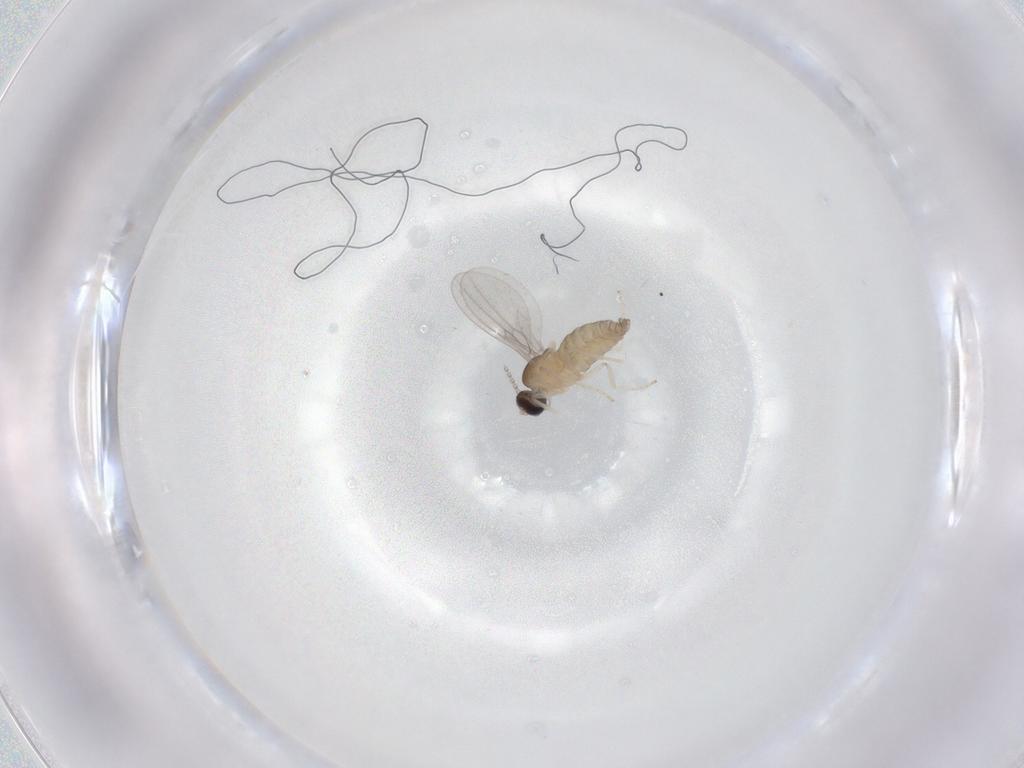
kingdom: Animalia
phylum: Arthropoda
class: Insecta
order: Diptera
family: Cecidomyiidae
